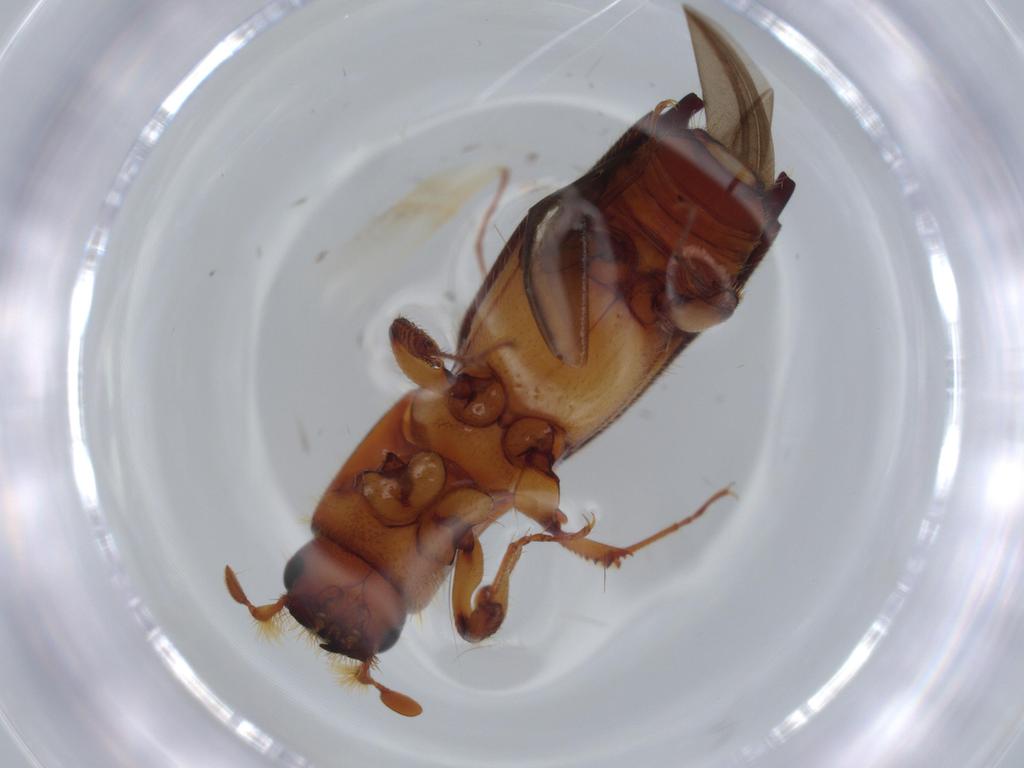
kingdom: Animalia
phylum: Arthropoda
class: Insecta
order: Coleoptera
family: Curculionidae
